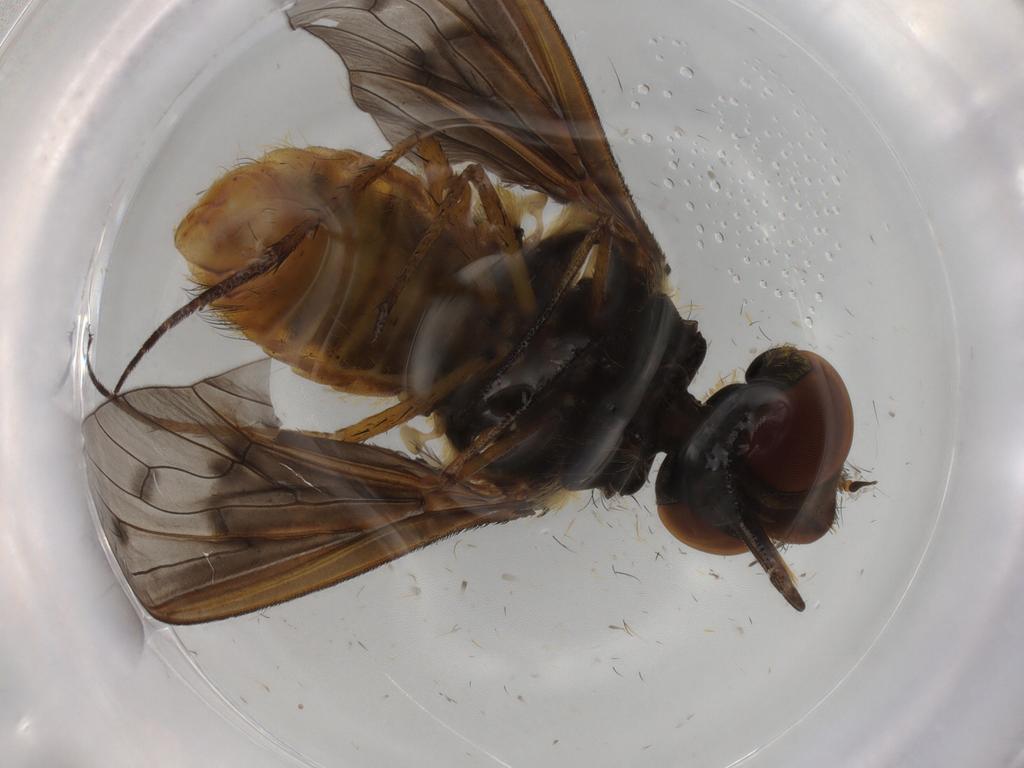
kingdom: Animalia
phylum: Arthropoda
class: Insecta
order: Diptera
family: Bombyliidae
